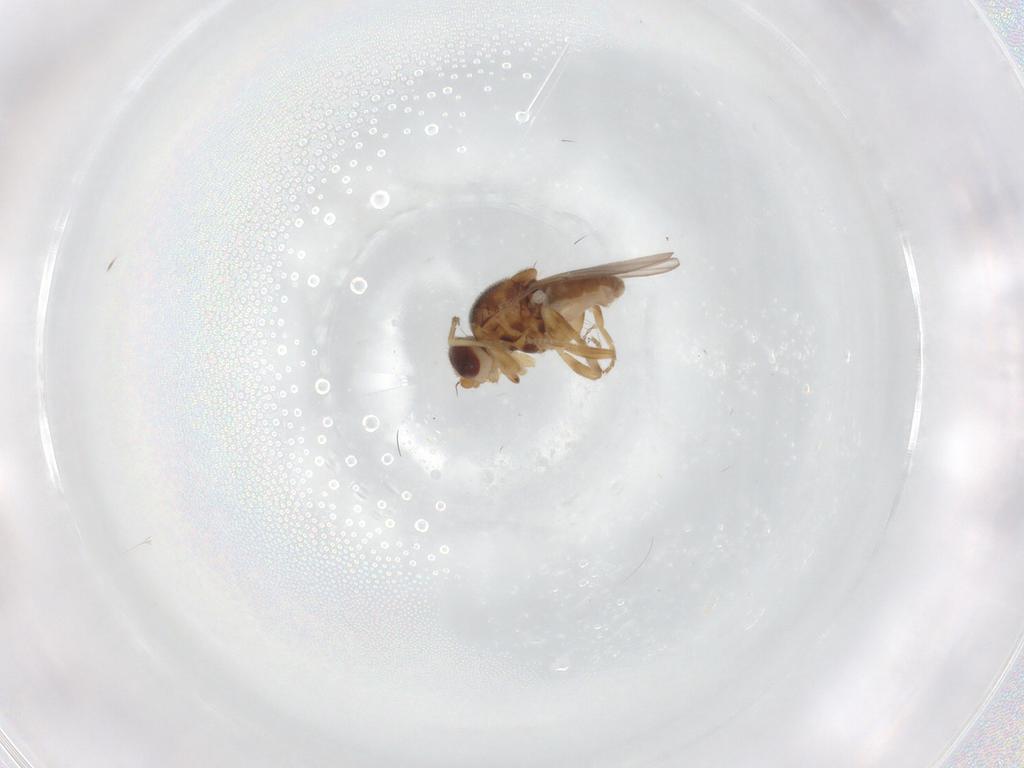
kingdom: Animalia
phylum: Arthropoda
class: Insecta
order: Diptera
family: Chloropidae
